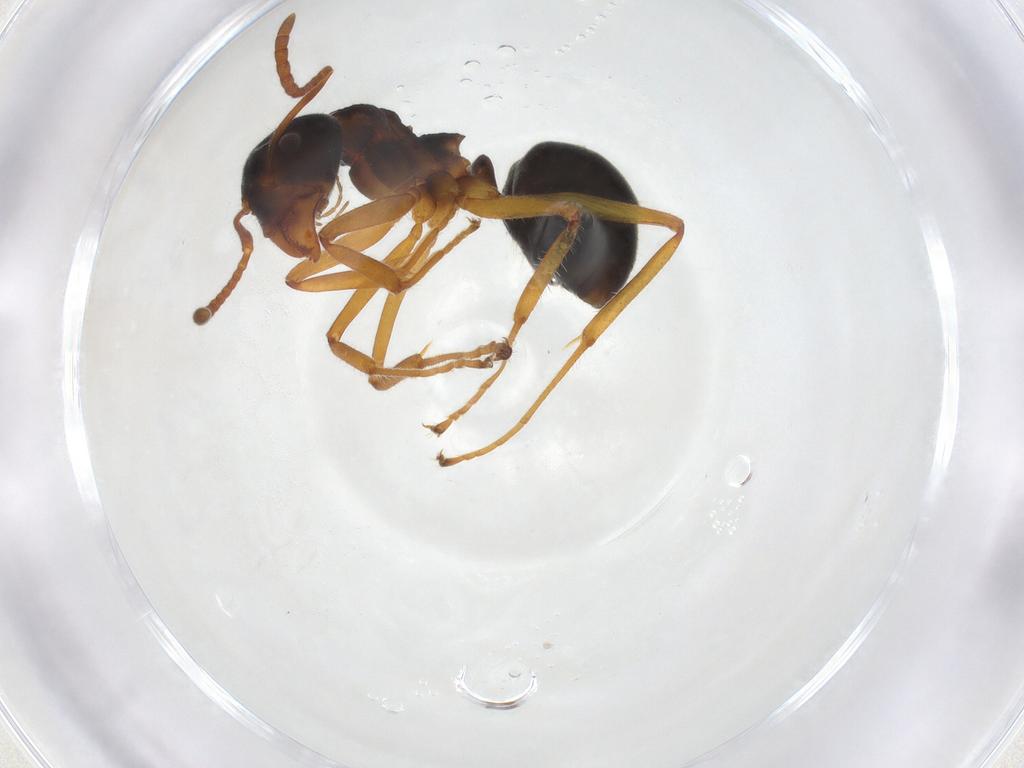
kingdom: Animalia
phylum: Arthropoda
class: Insecta
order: Hymenoptera
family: Formicidae
